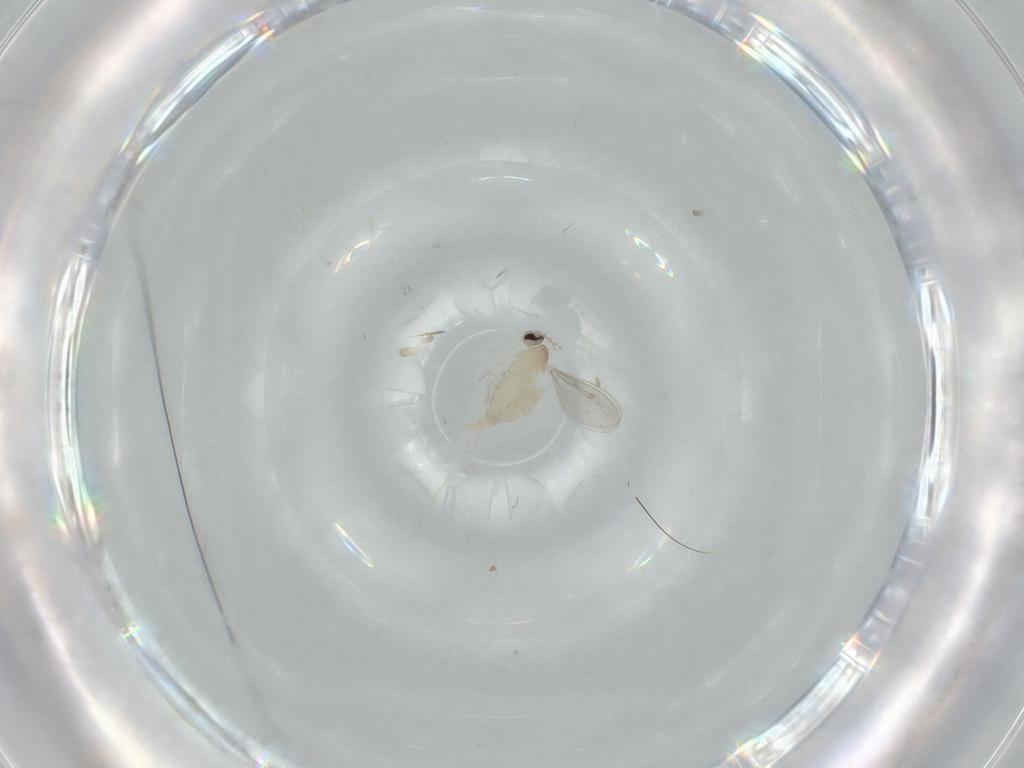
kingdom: Animalia
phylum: Arthropoda
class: Insecta
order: Diptera
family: Cecidomyiidae
